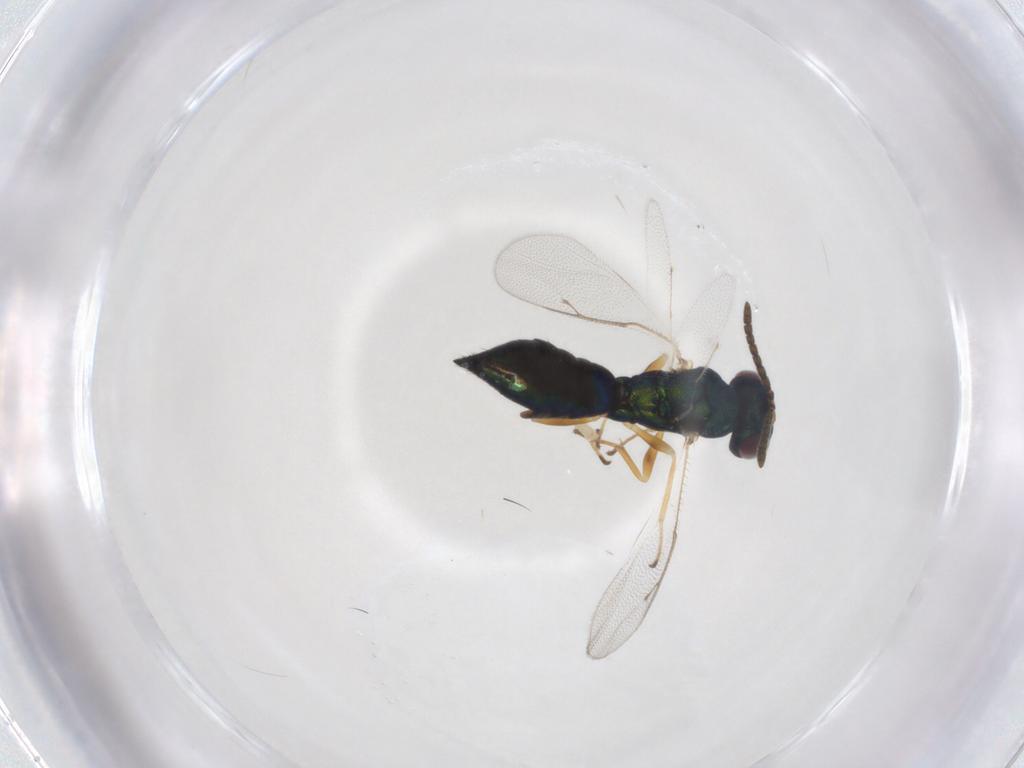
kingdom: Animalia
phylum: Arthropoda
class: Insecta
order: Hymenoptera
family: Pteromalidae
